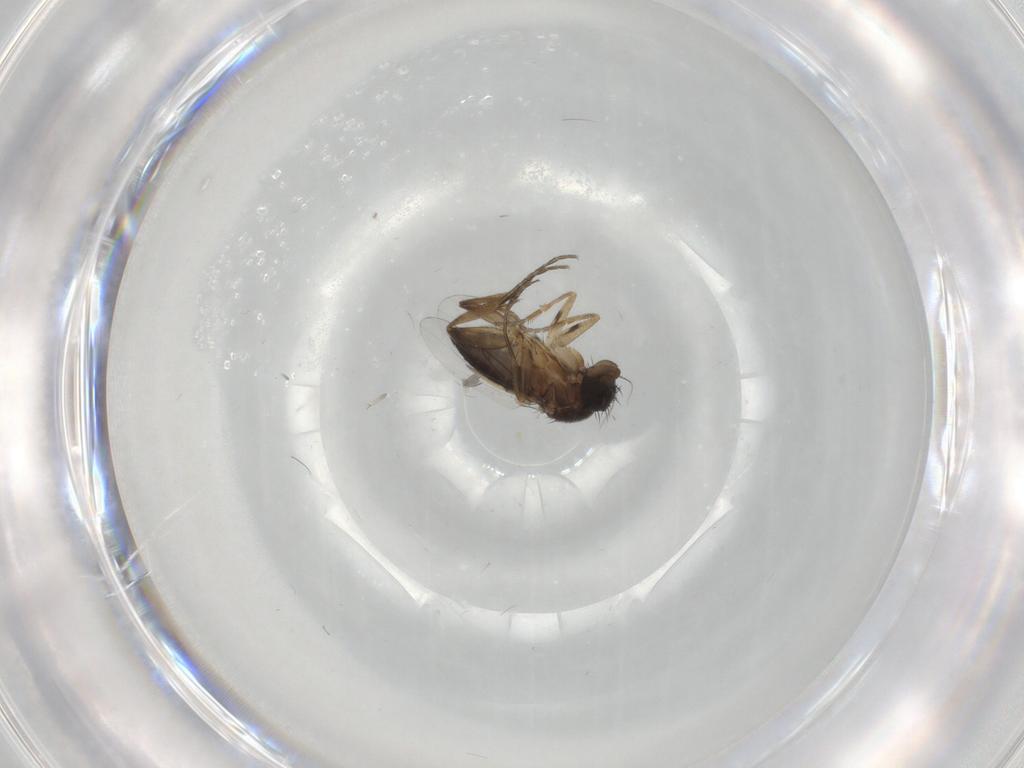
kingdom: Animalia
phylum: Arthropoda
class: Insecta
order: Diptera
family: Phoridae
